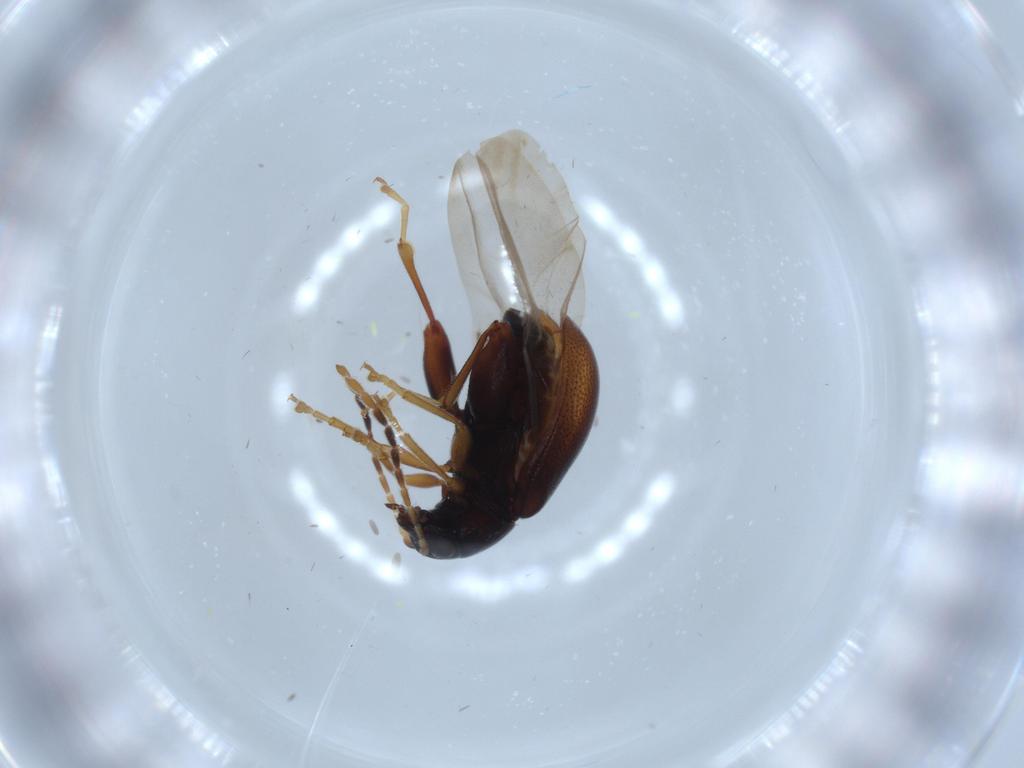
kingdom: Animalia
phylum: Arthropoda
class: Insecta
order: Coleoptera
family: Chrysomelidae
